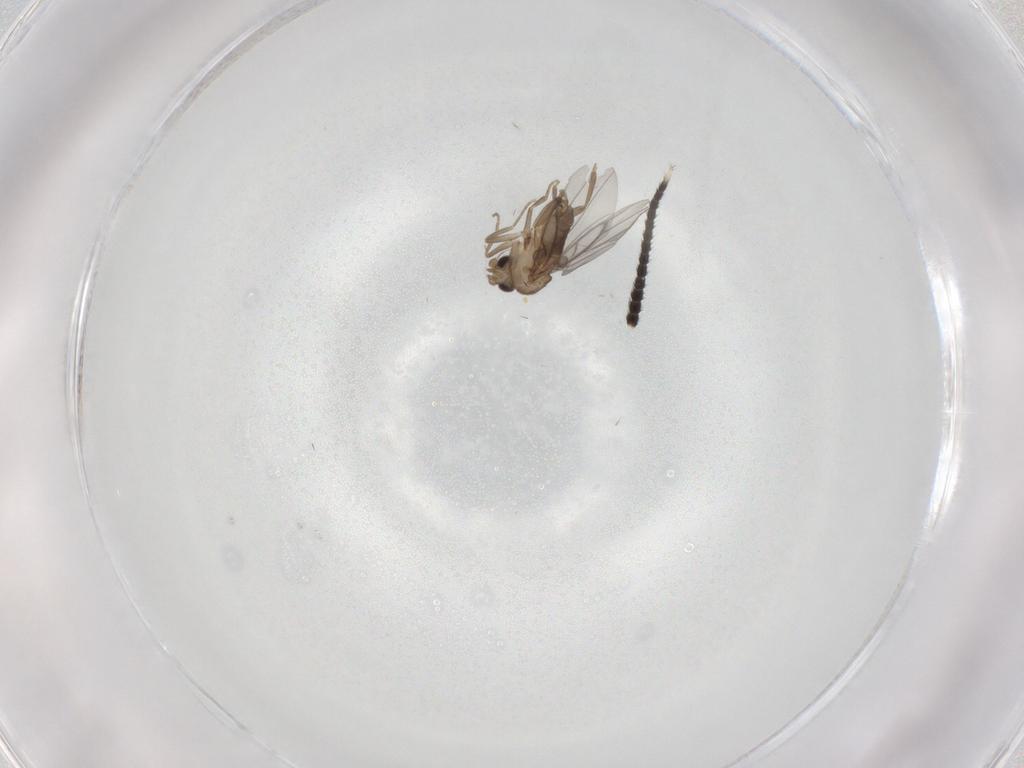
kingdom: Animalia
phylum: Arthropoda
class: Insecta
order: Diptera
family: Anisopodidae
